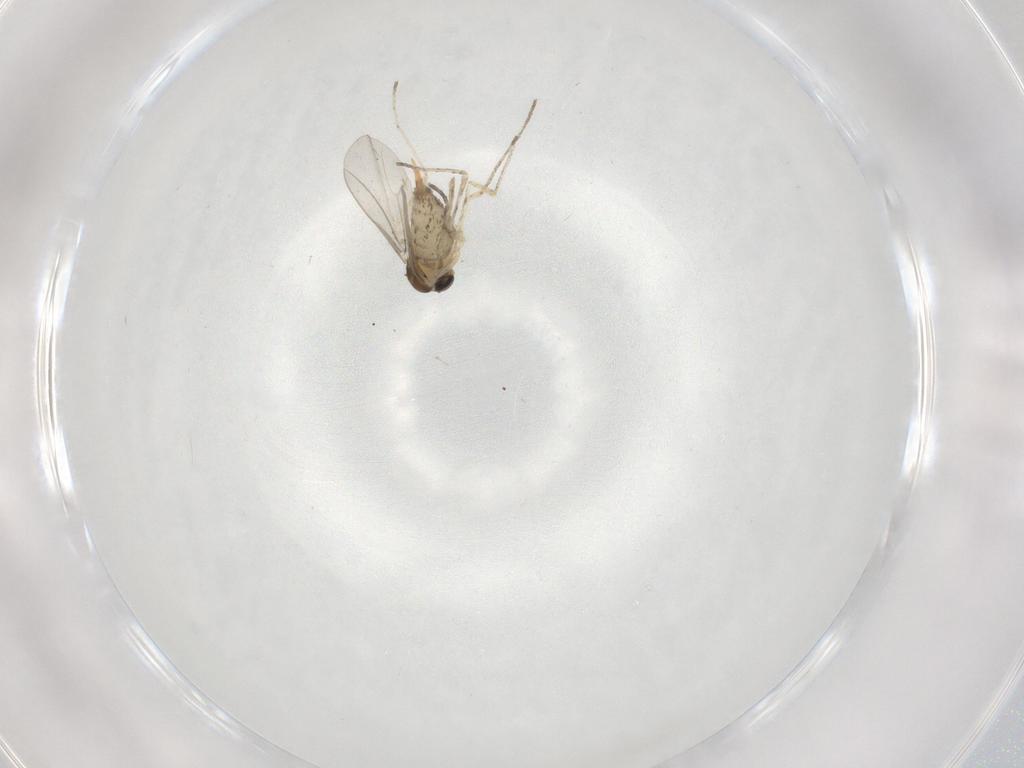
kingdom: Animalia
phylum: Arthropoda
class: Insecta
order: Diptera
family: Cecidomyiidae
